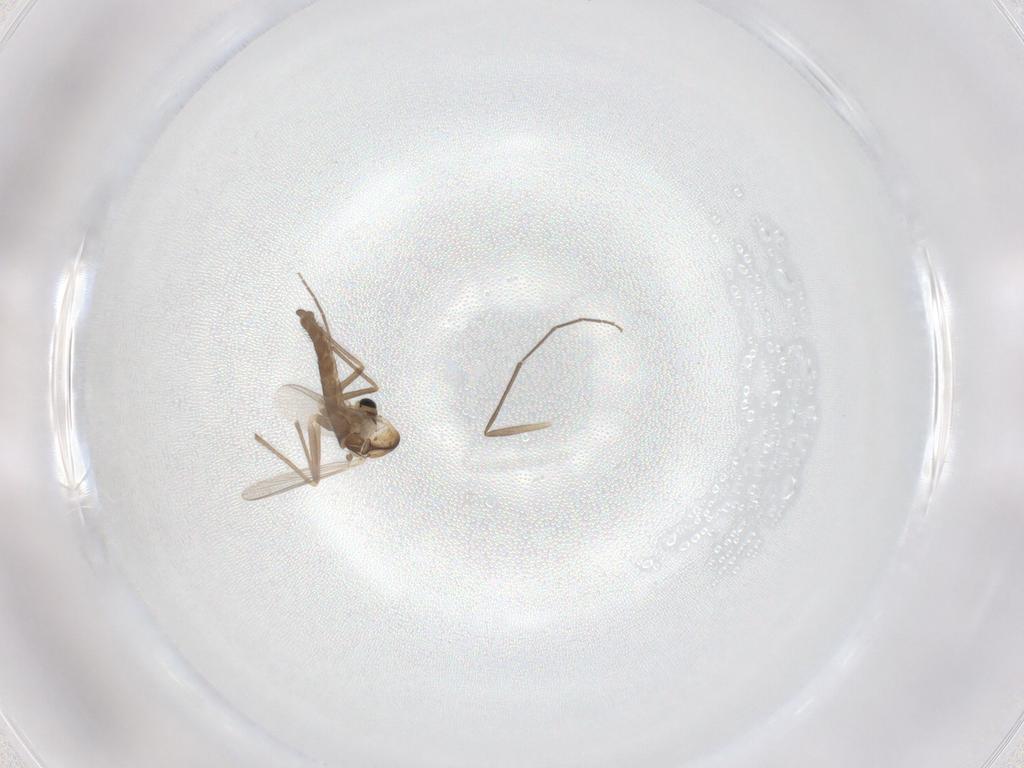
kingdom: Animalia
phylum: Arthropoda
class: Insecta
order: Diptera
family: Chironomidae
